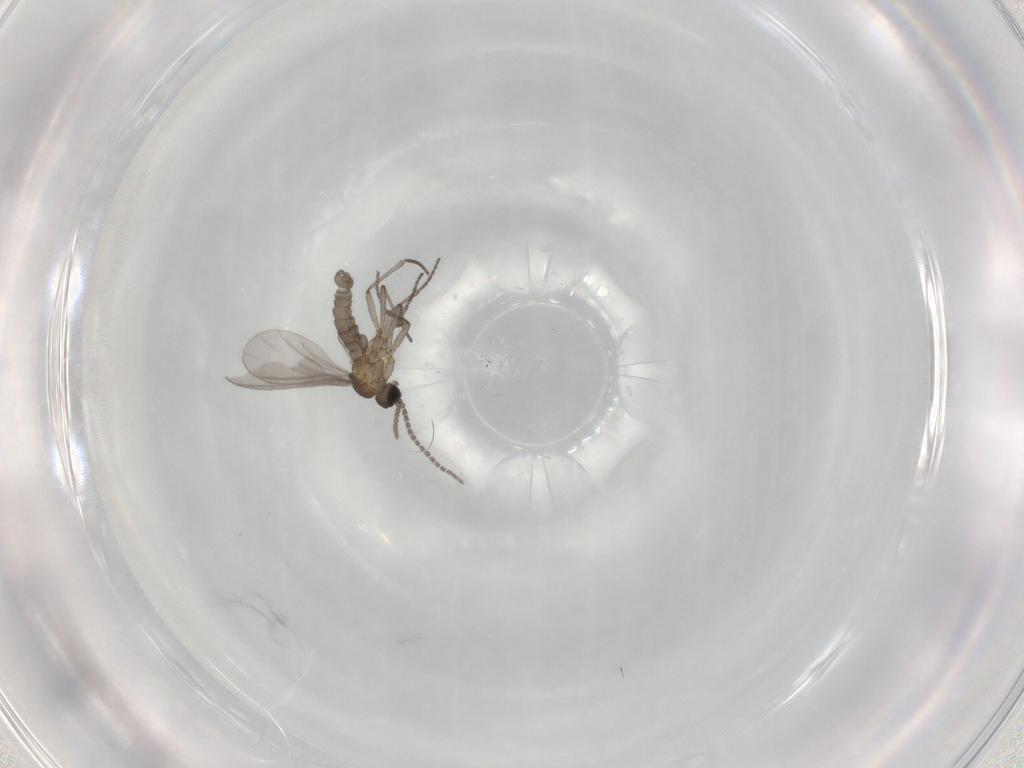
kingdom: Animalia
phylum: Arthropoda
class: Insecta
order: Diptera
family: Sciaridae
